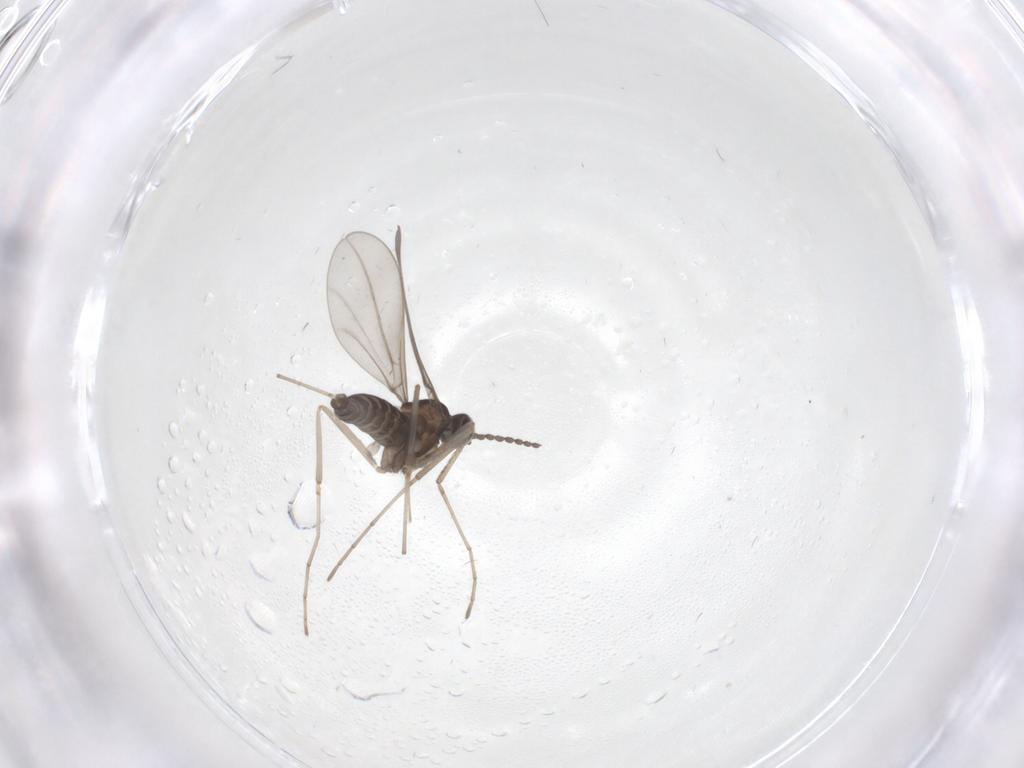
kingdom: Animalia
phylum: Arthropoda
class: Insecta
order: Diptera
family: Cecidomyiidae
